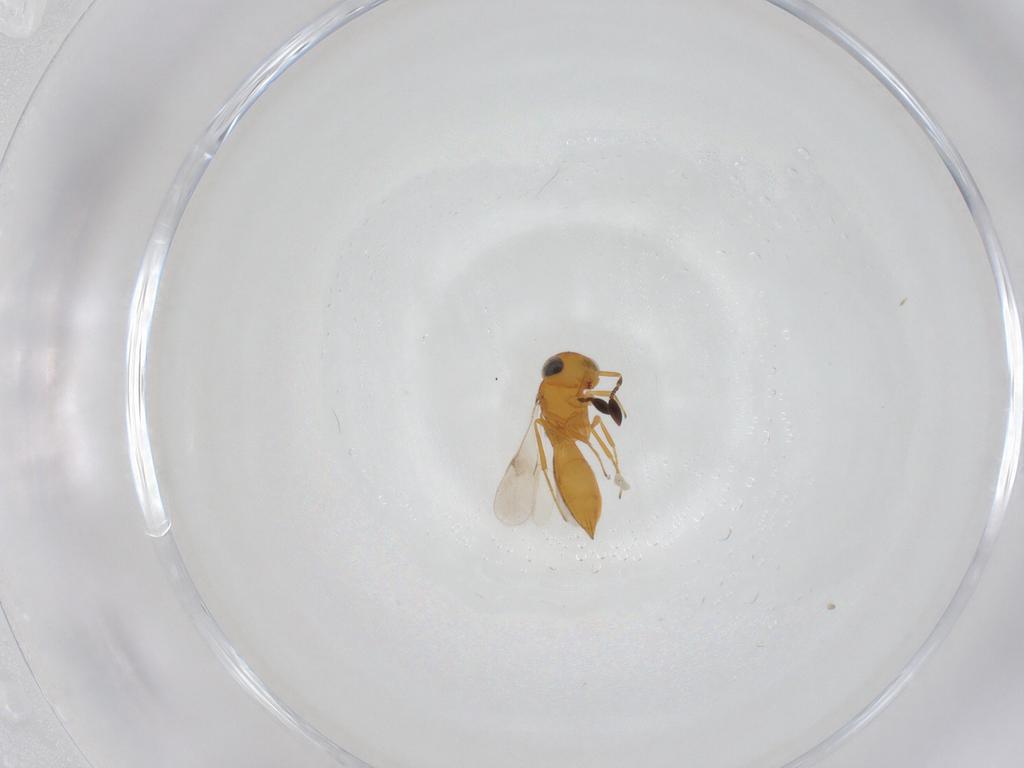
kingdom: Animalia
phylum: Arthropoda
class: Insecta
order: Hymenoptera
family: Scelionidae
